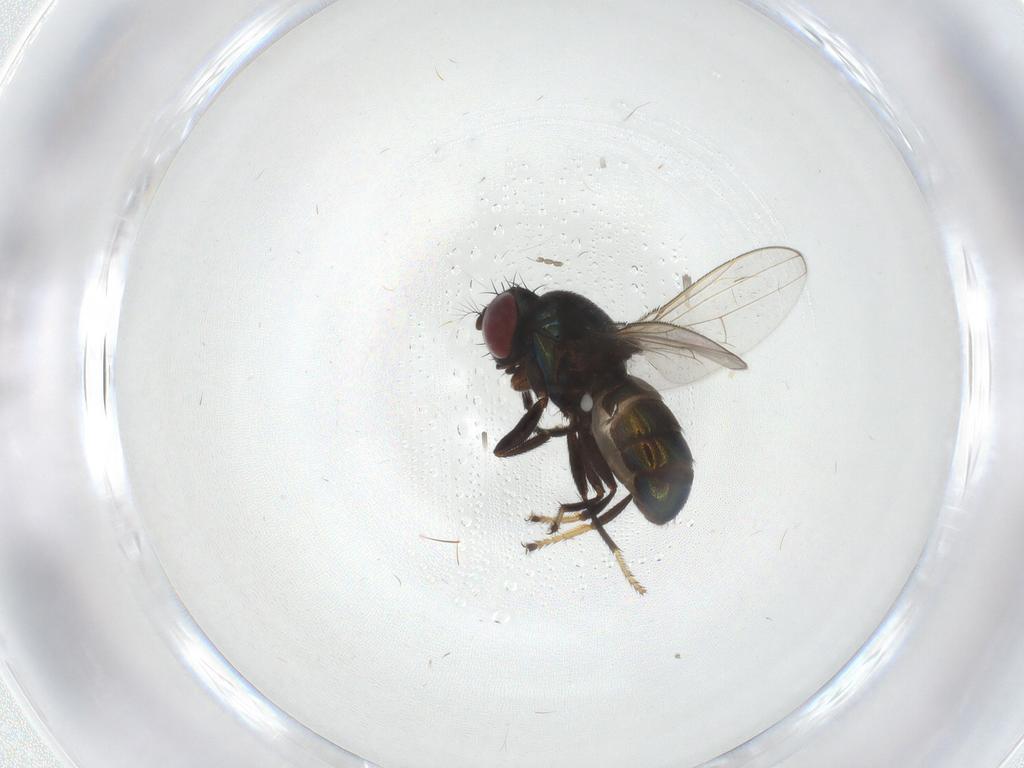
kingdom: Animalia
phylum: Arthropoda
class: Insecta
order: Diptera
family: Ephydridae
